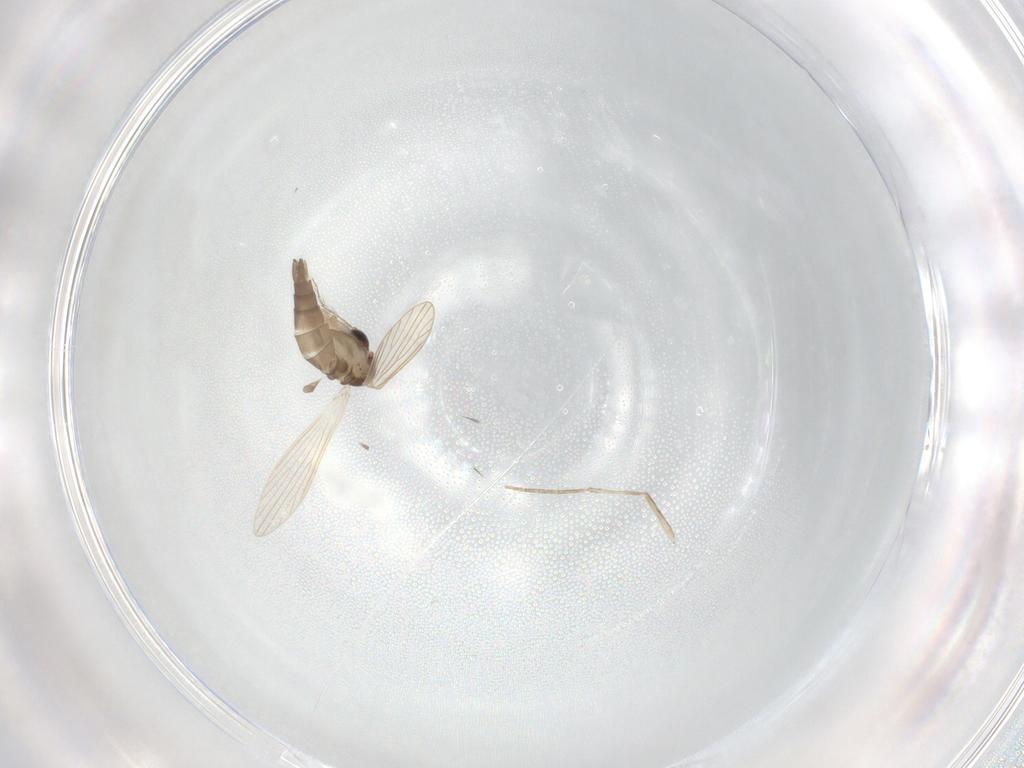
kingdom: Animalia
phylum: Arthropoda
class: Insecta
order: Diptera
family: Psychodidae
